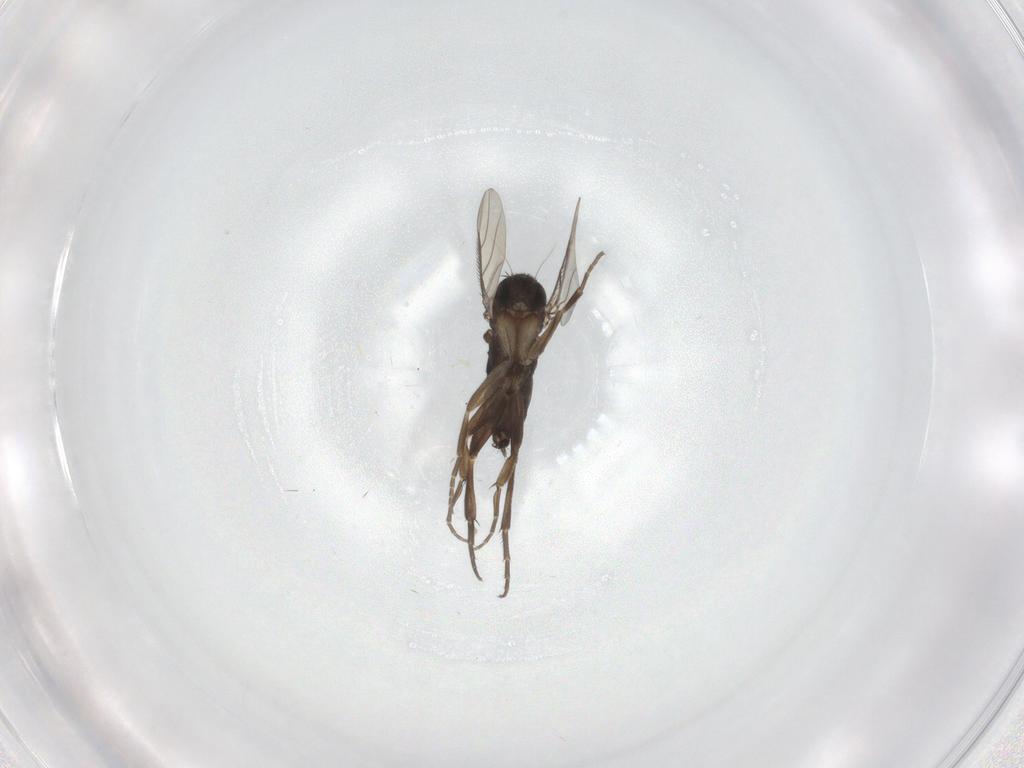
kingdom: Animalia
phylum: Arthropoda
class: Insecta
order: Diptera
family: Phoridae
